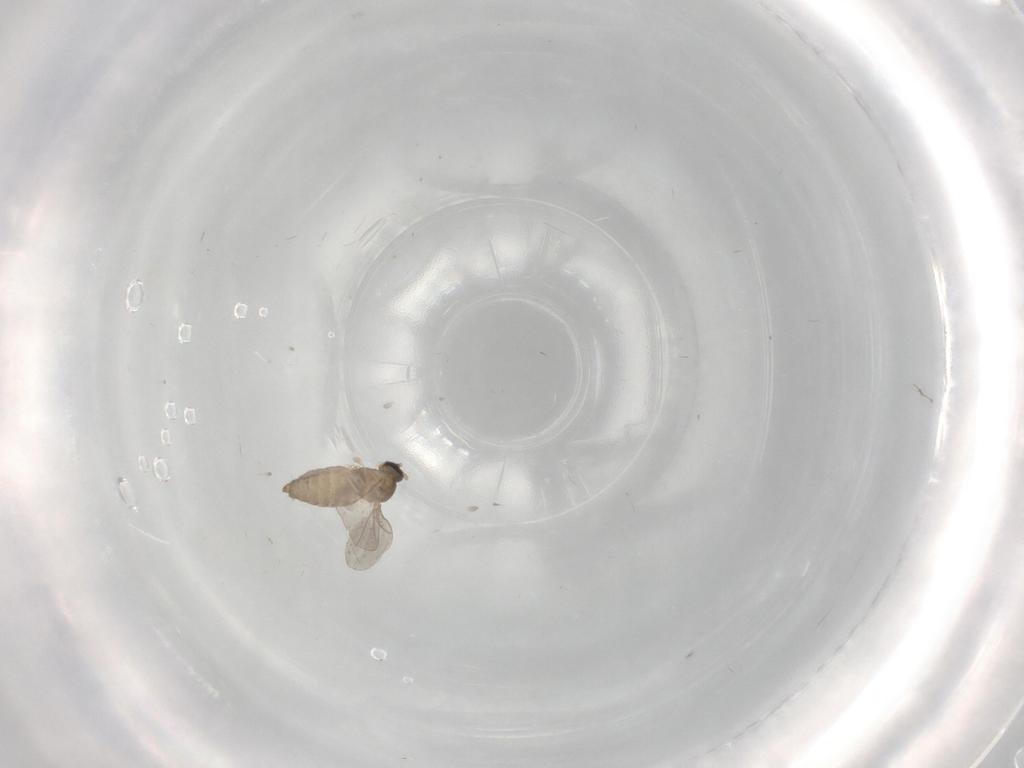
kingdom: Animalia
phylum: Arthropoda
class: Insecta
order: Diptera
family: Cecidomyiidae
